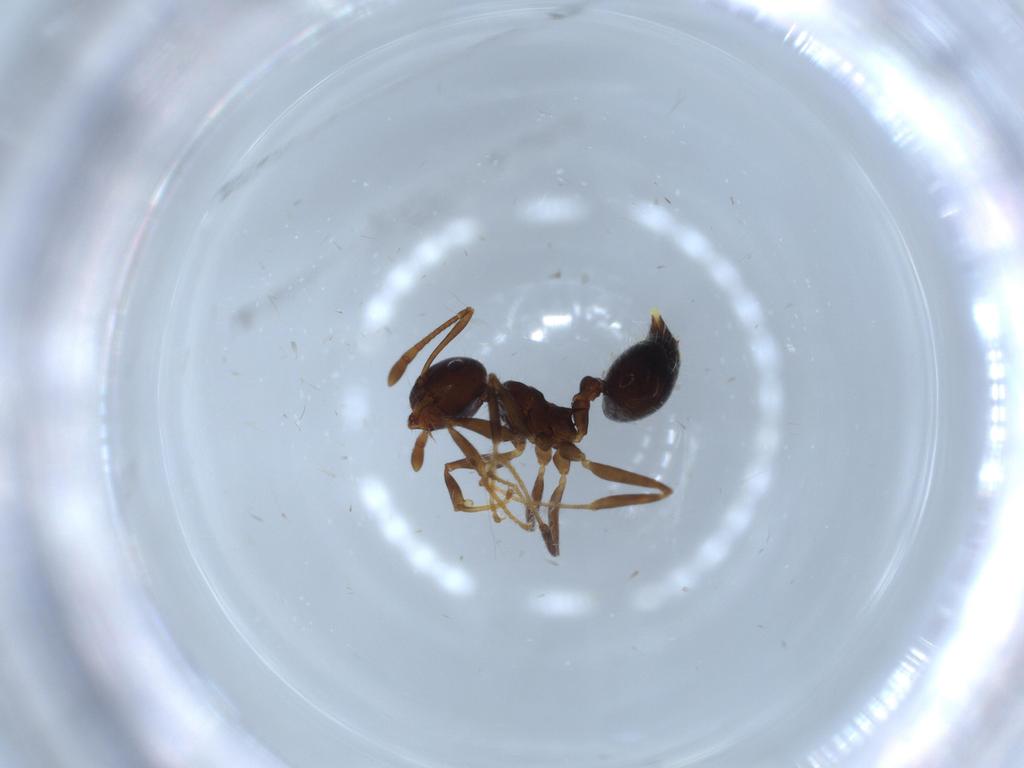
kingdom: Animalia
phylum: Arthropoda
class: Insecta
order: Hymenoptera
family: Formicidae
